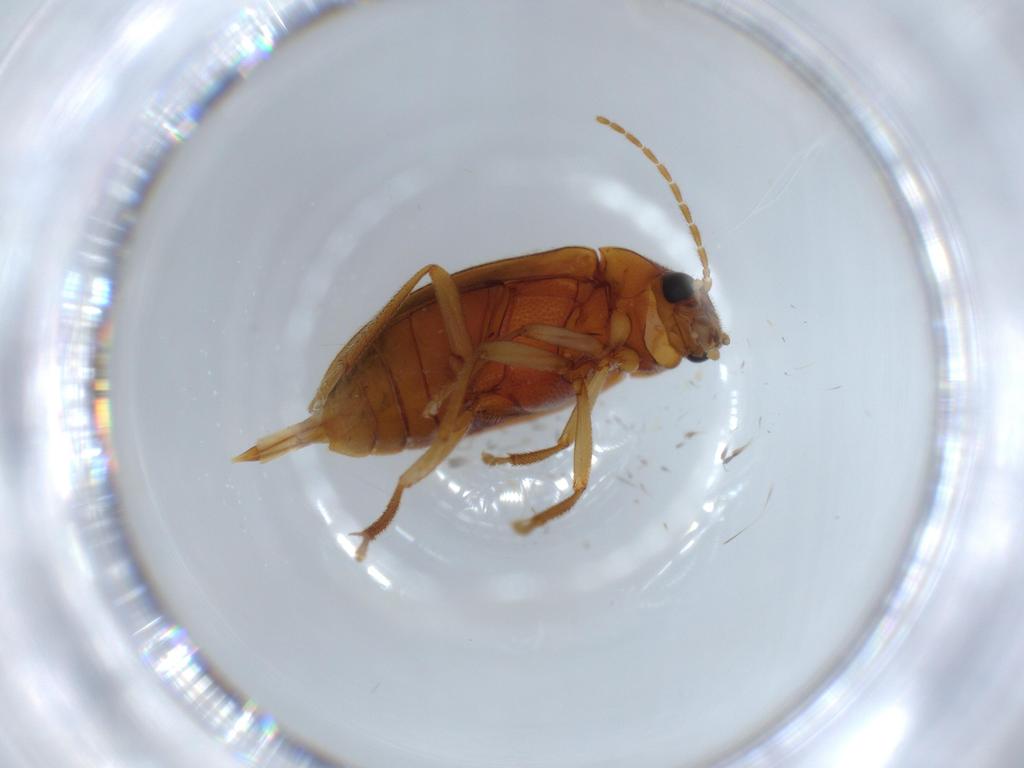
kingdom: Animalia
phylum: Arthropoda
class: Insecta
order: Coleoptera
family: Ptilodactylidae
